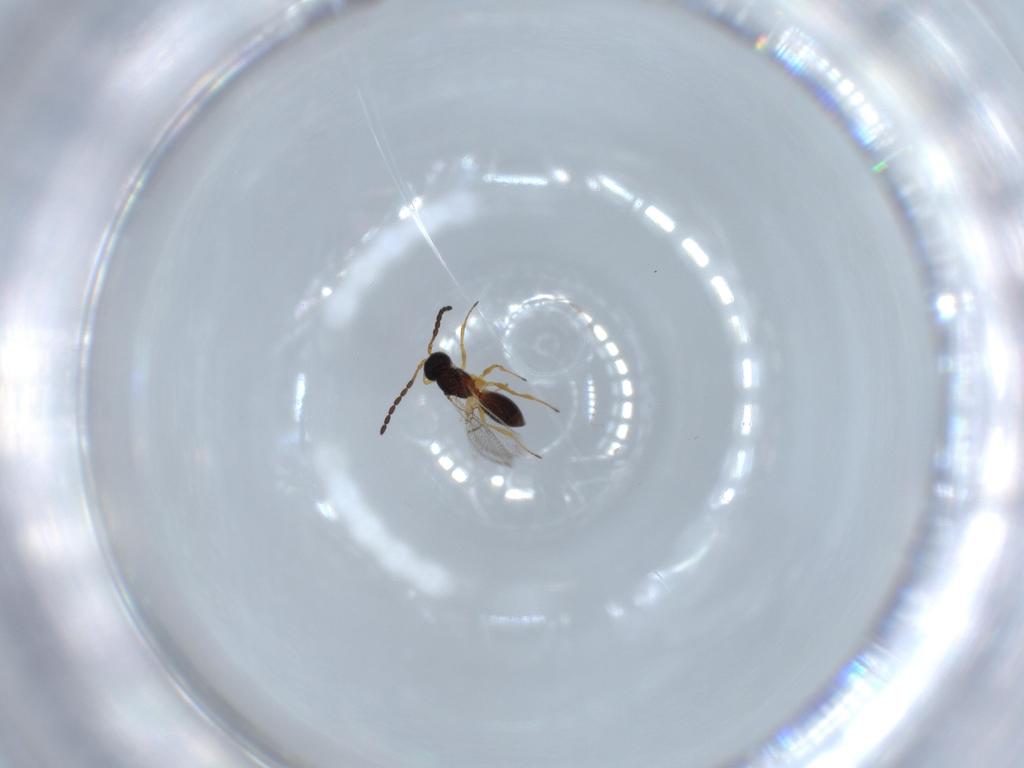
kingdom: Animalia
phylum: Arthropoda
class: Insecta
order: Hymenoptera
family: Figitidae
